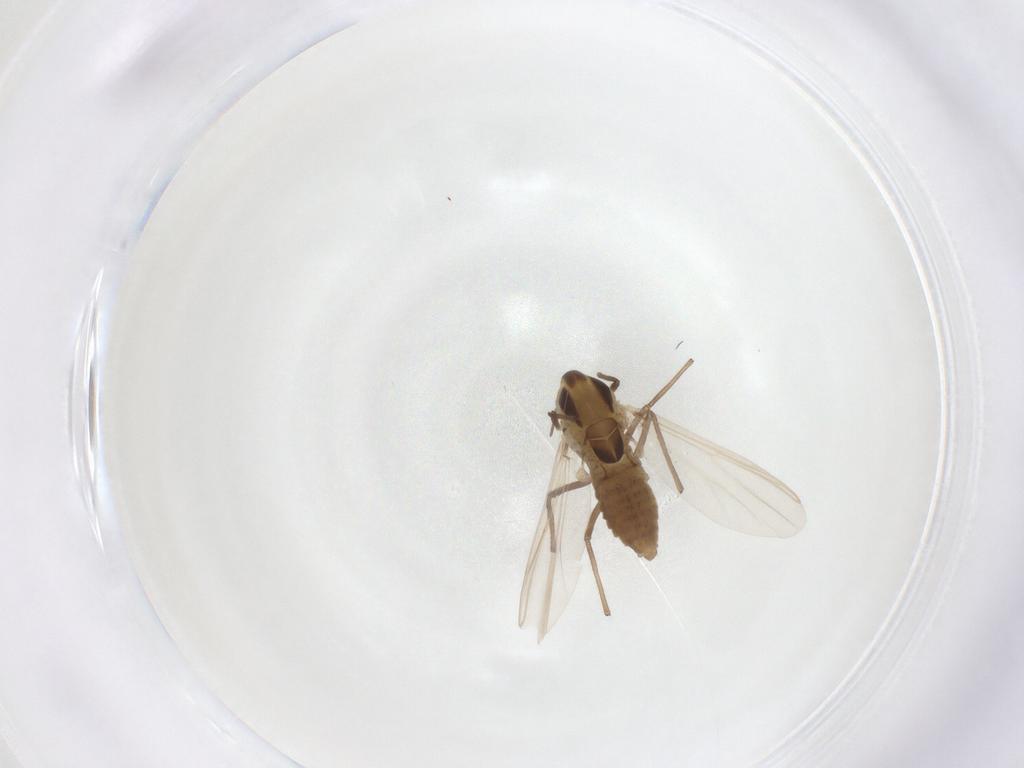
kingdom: Animalia
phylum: Arthropoda
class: Insecta
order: Diptera
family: Chironomidae
